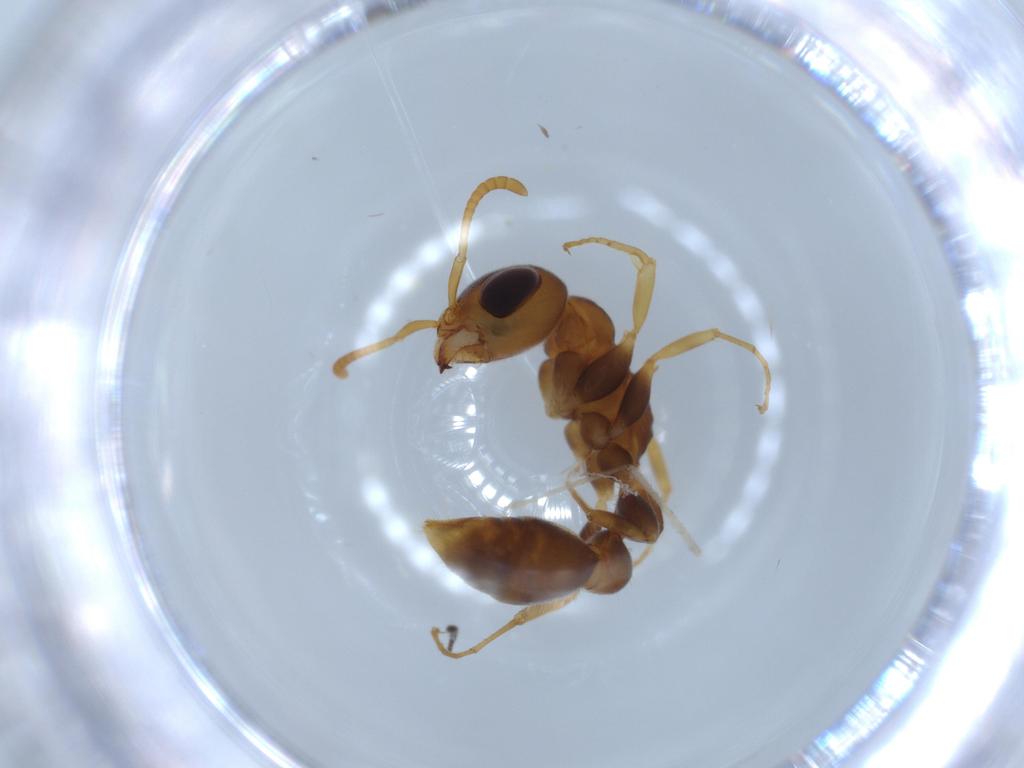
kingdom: Animalia
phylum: Arthropoda
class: Insecta
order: Hymenoptera
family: Formicidae
